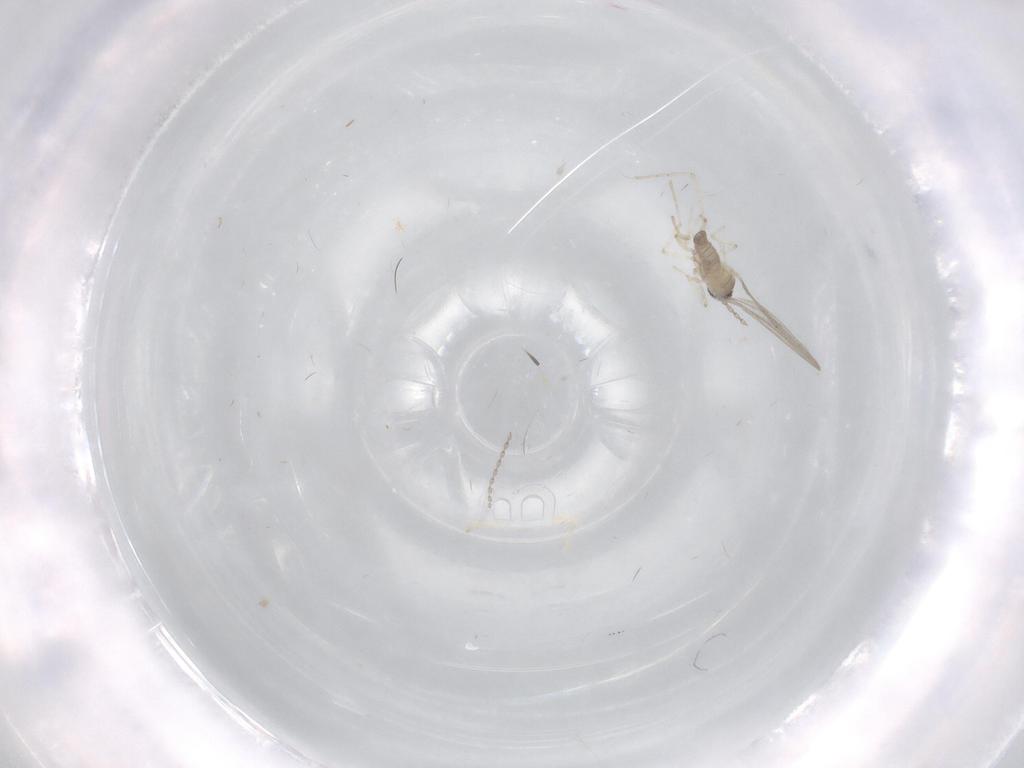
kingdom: Animalia
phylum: Arthropoda
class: Insecta
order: Diptera
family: Cecidomyiidae
